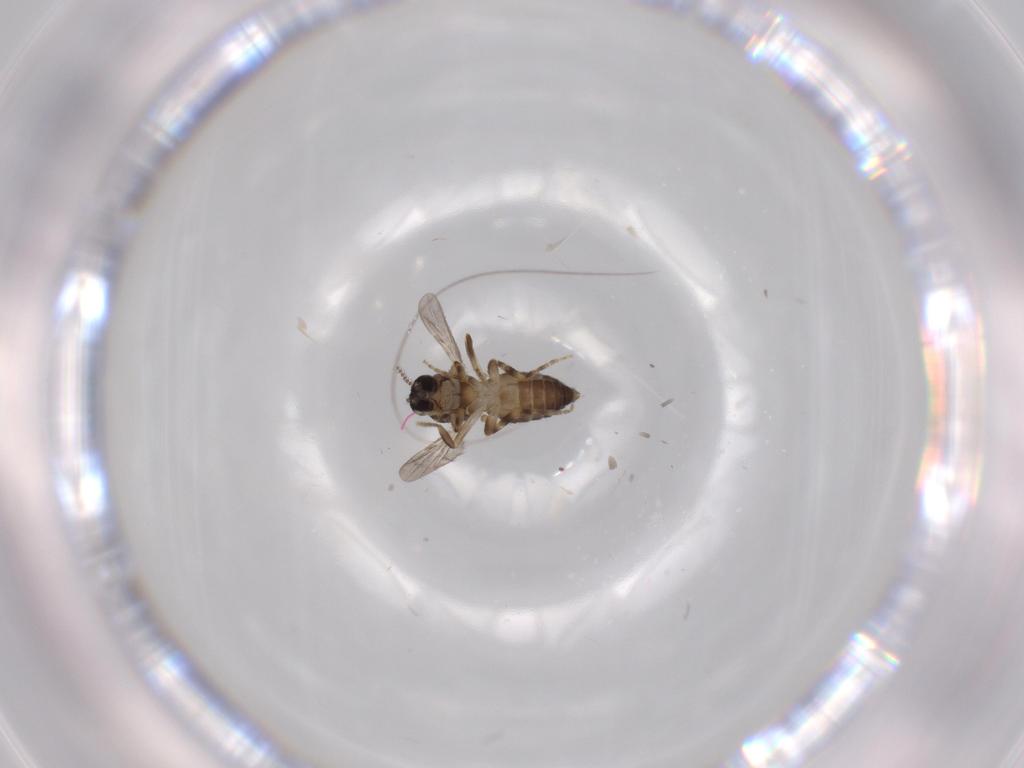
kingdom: Animalia
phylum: Arthropoda
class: Insecta
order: Diptera
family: Ceratopogonidae
